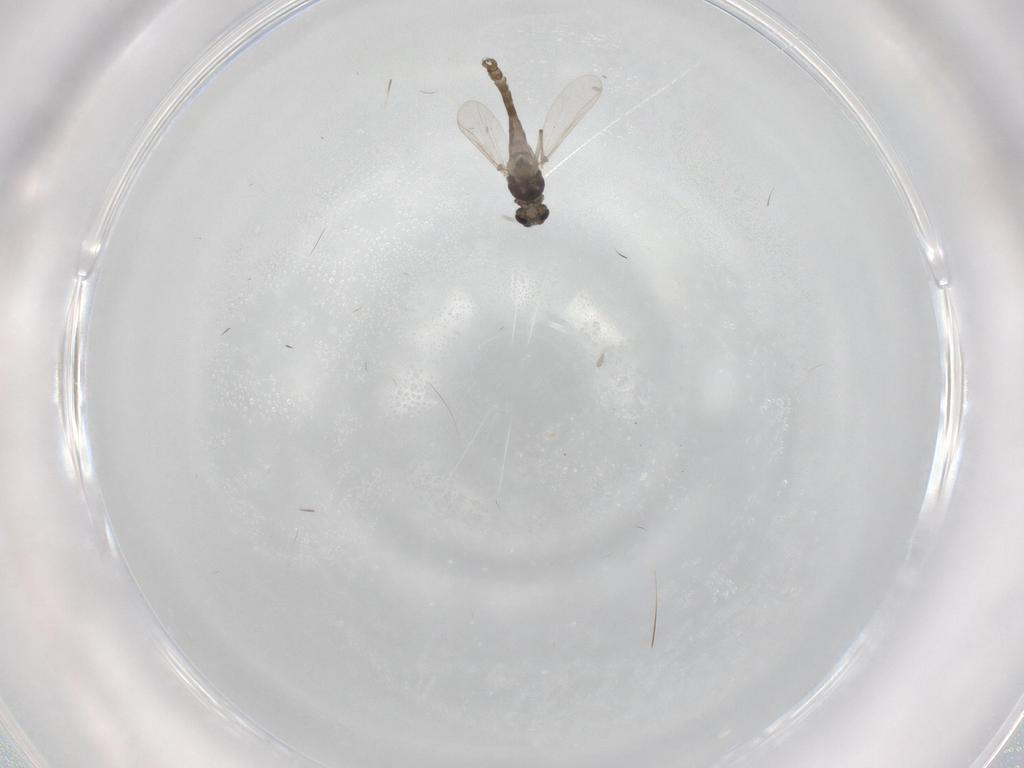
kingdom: Animalia
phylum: Arthropoda
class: Insecta
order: Diptera
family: Chironomidae
